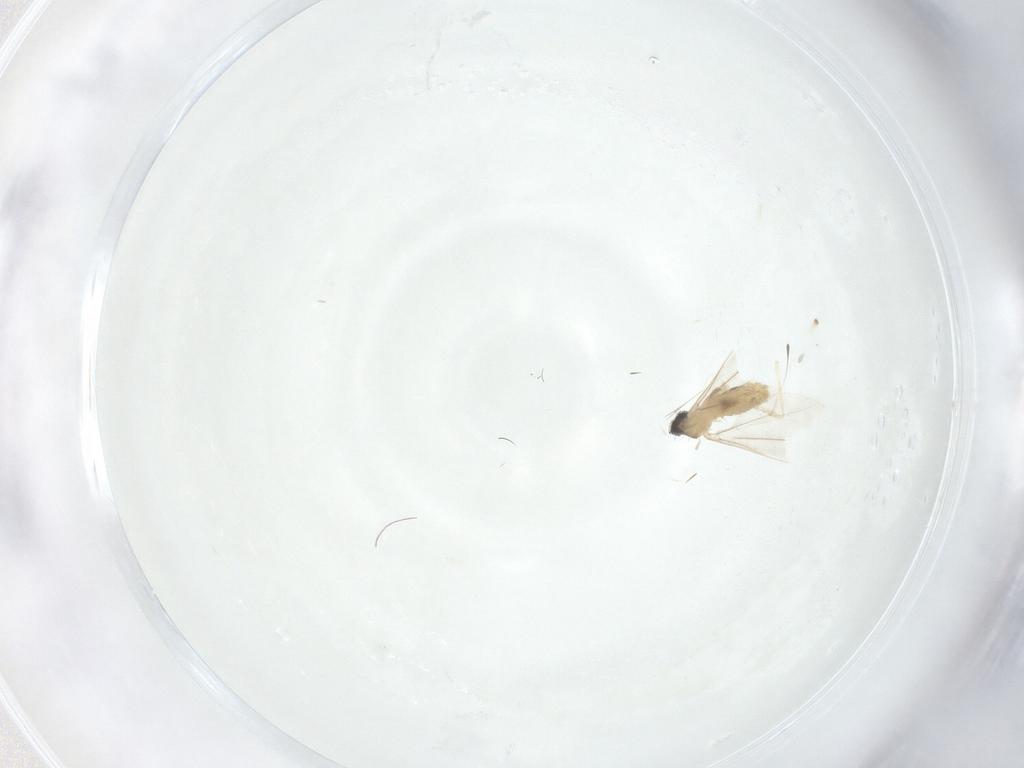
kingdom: Animalia
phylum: Arthropoda
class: Insecta
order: Diptera
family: Cecidomyiidae
